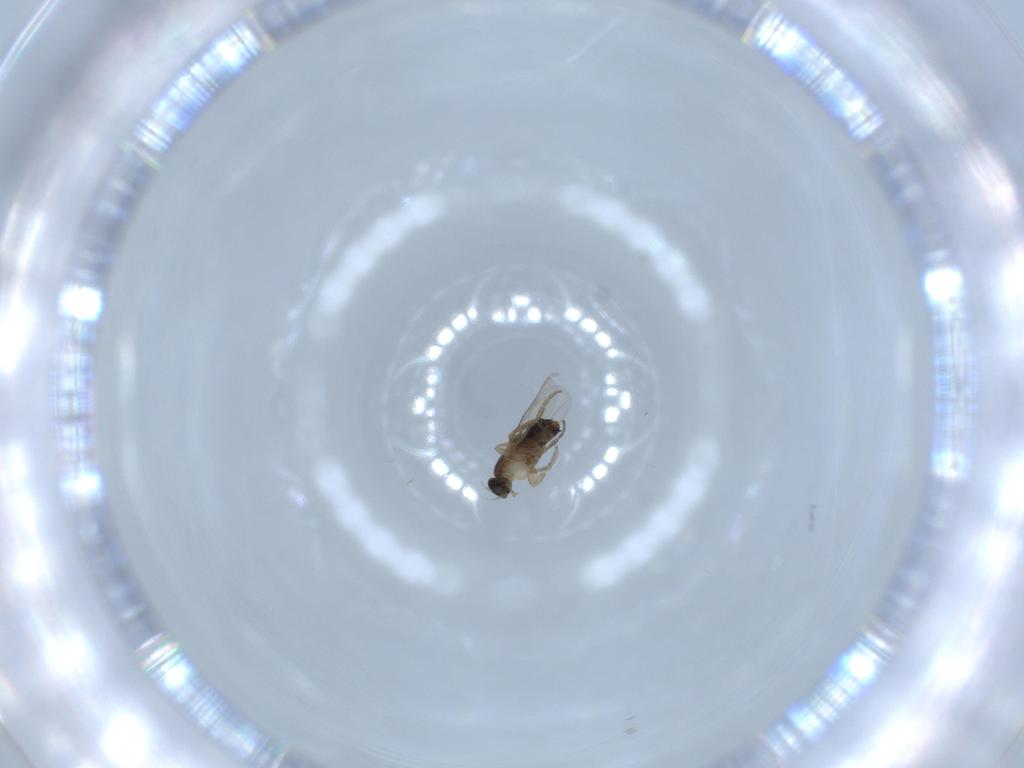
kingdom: Animalia
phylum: Arthropoda
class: Insecta
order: Diptera
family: Phoridae
